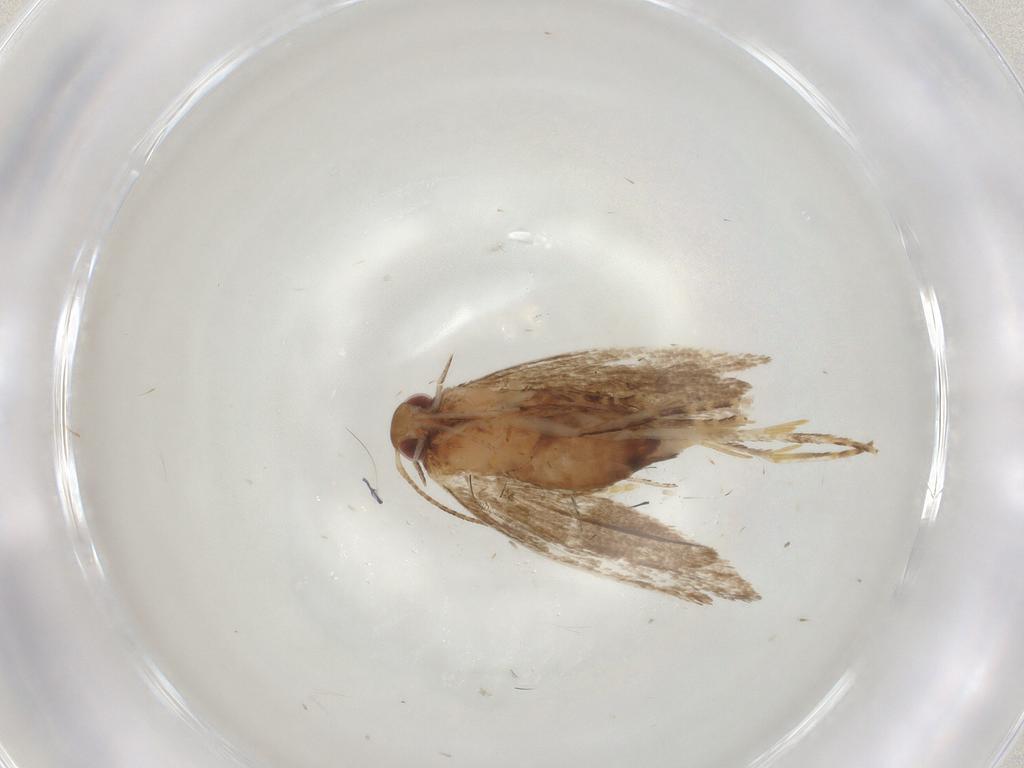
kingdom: Animalia
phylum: Arthropoda
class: Insecta
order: Lepidoptera
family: Oecophoridae
